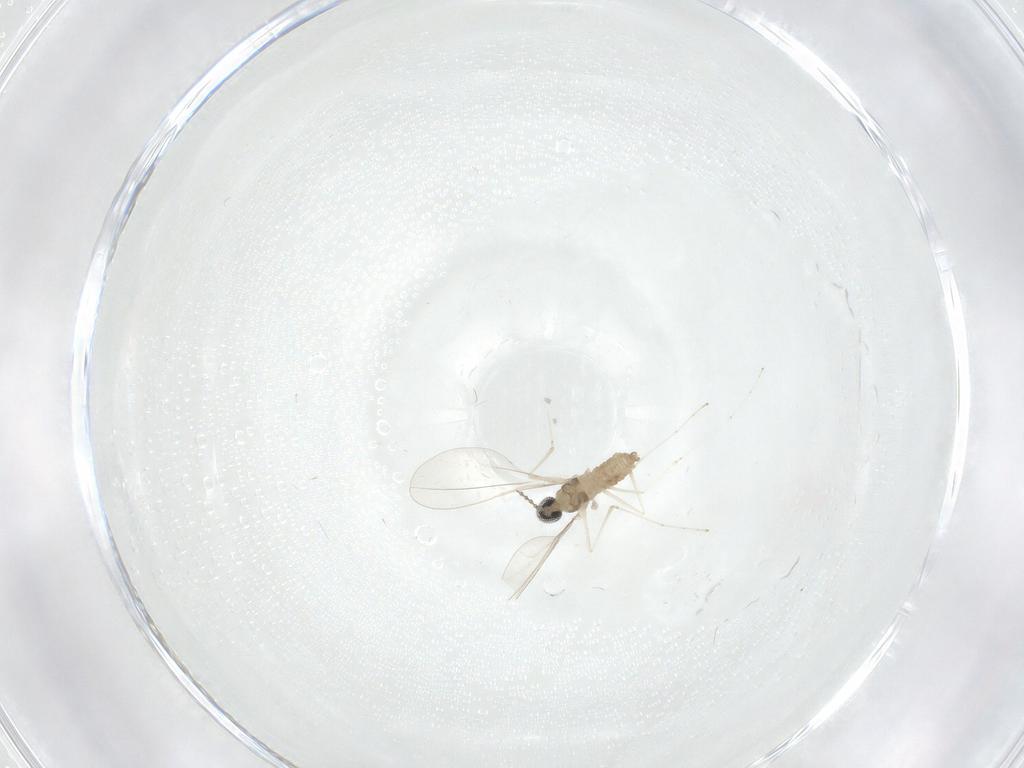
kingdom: Animalia
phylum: Arthropoda
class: Insecta
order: Diptera
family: Cecidomyiidae
